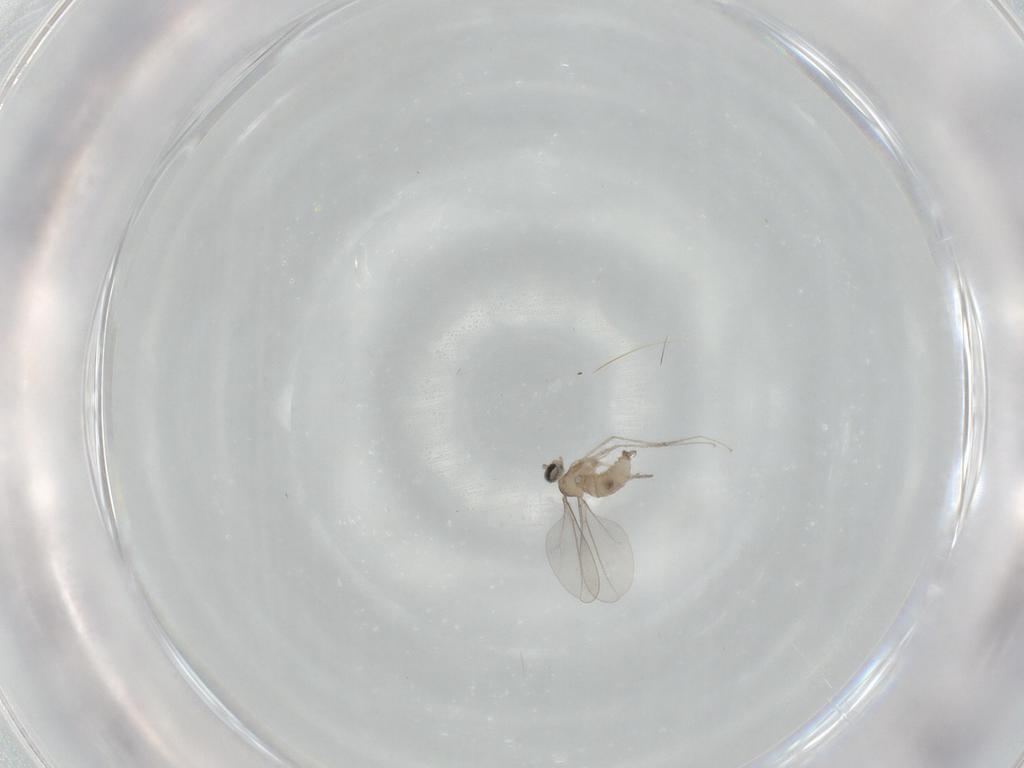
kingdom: Animalia
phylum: Arthropoda
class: Insecta
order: Diptera
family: Cecidomyiidae
